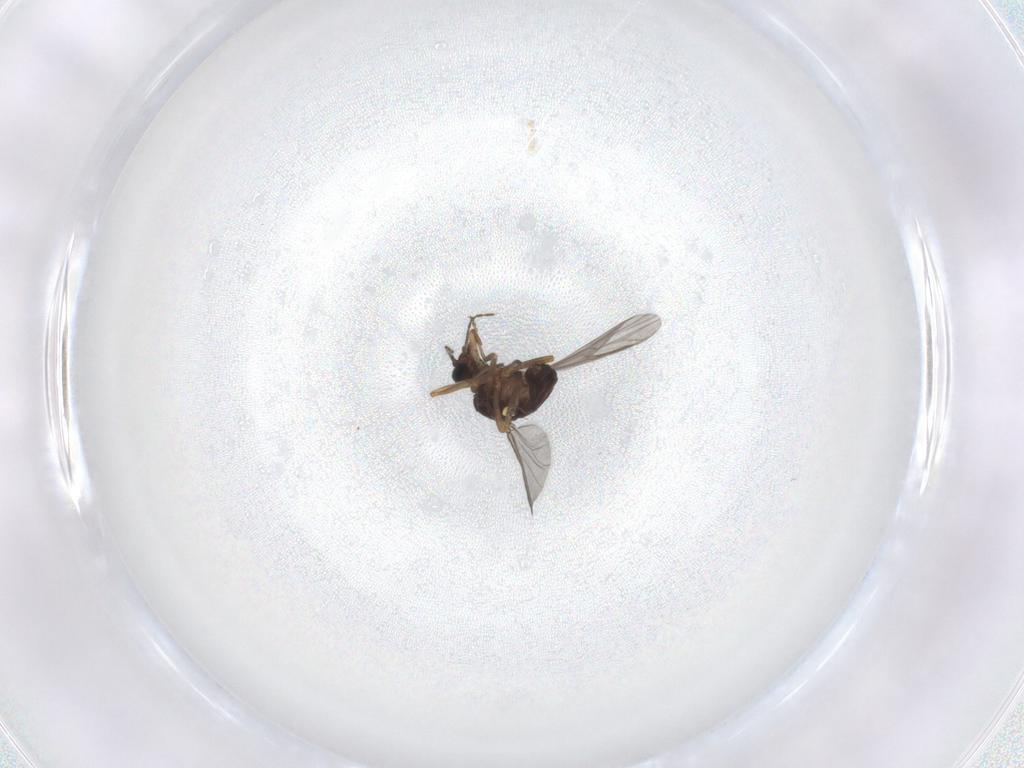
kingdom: Animalia
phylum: Arthropoda
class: Insecta
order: Diptera
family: Ceratopogonidae
